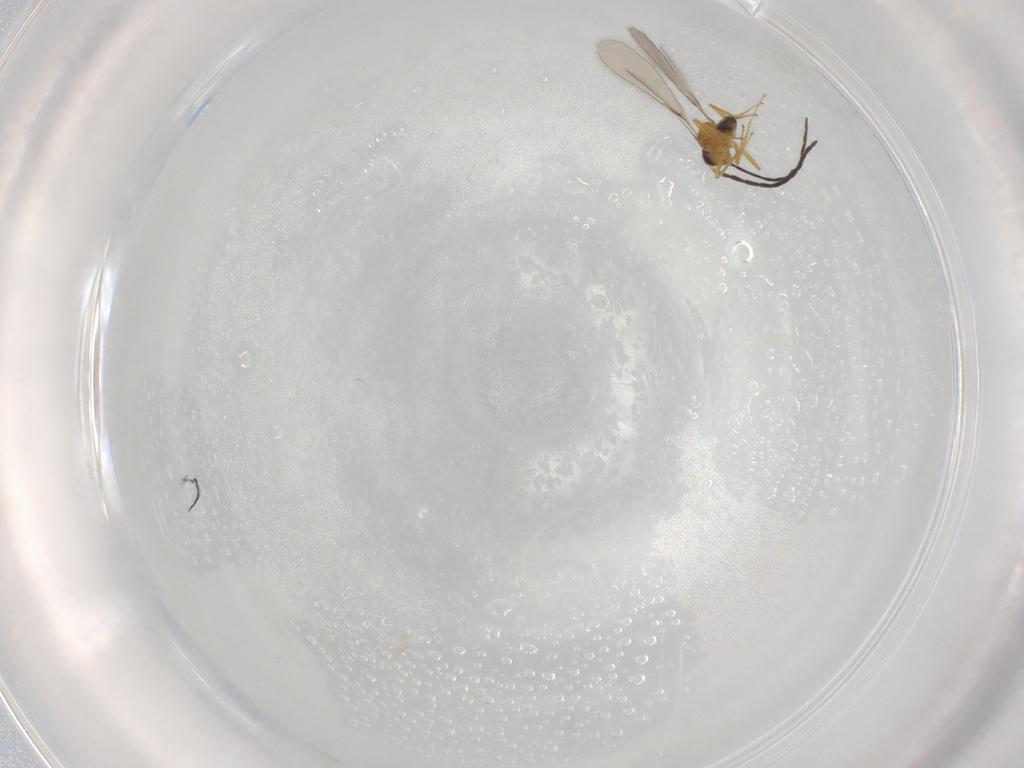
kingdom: Animalia
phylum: Arthropoda
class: Insecta
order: Hymenoptera
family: Mymaridae
